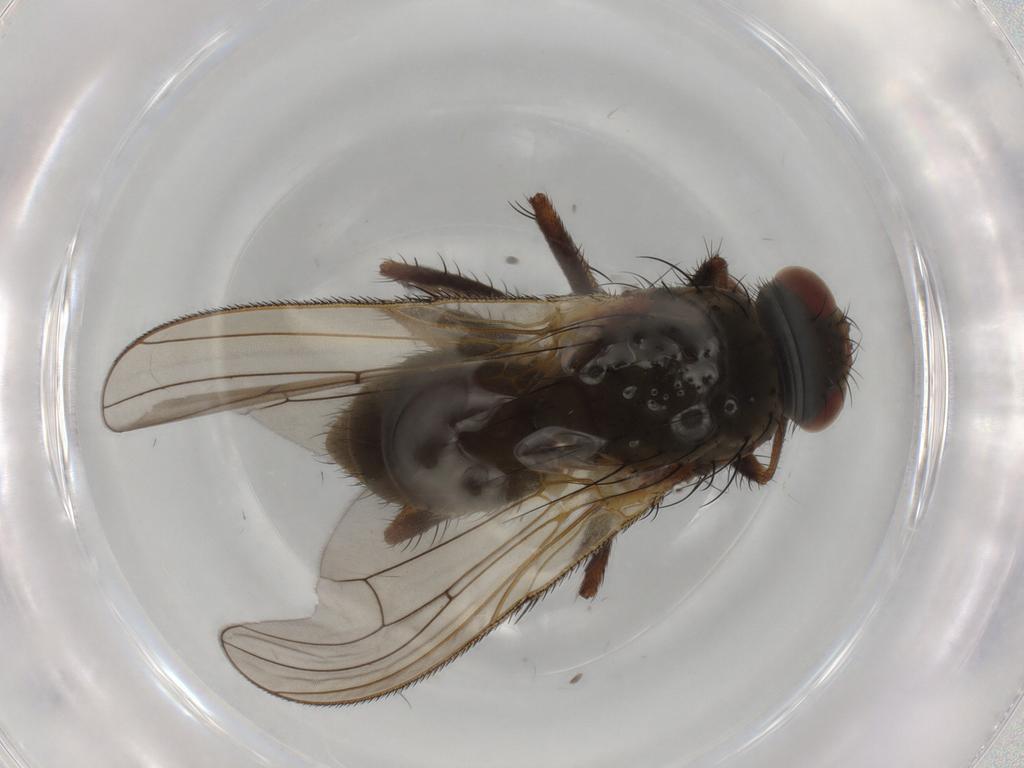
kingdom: Animalia
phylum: Arthropoda
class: Insecta
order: Diptera
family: Anthomyiidae
